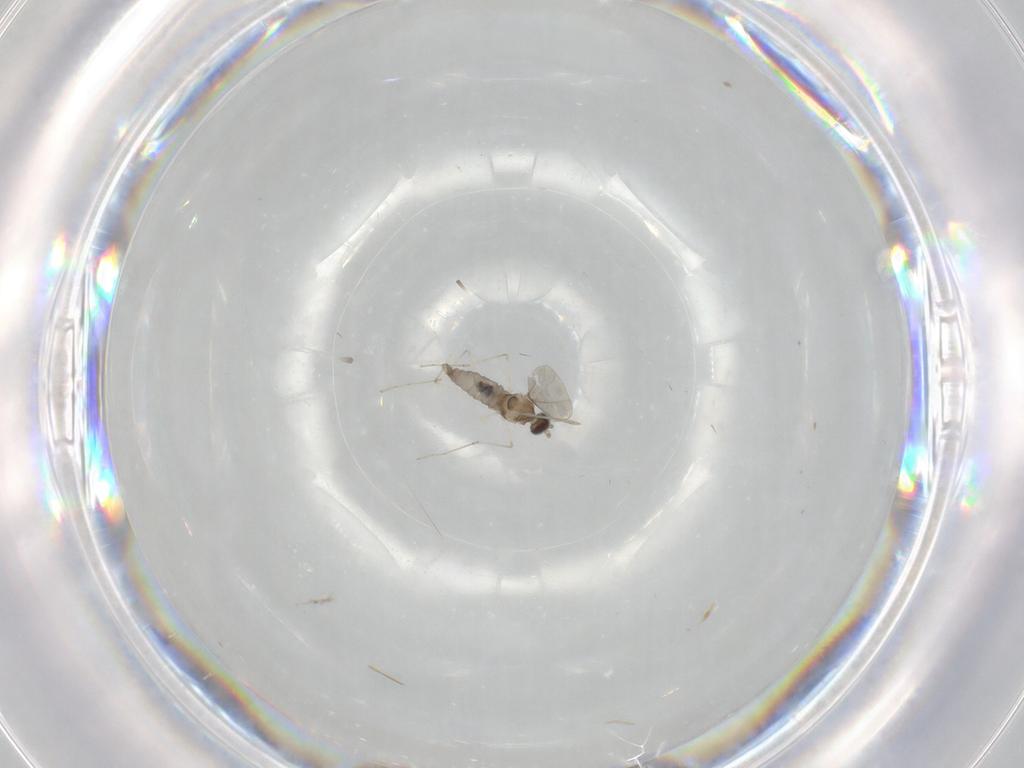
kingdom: Animalia
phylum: Arthropoda
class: Insecta
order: Diptera
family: Cecidomyiidae
